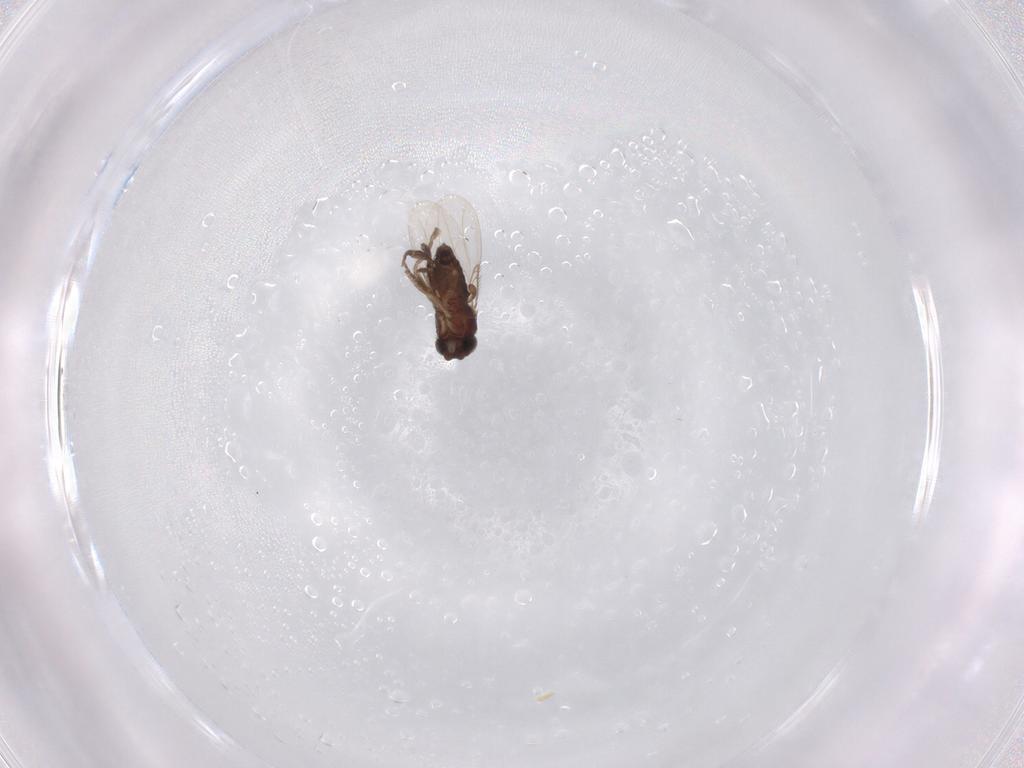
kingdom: Animalia
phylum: Arthropoda
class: Insecta
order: Diptera
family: Phoridae
